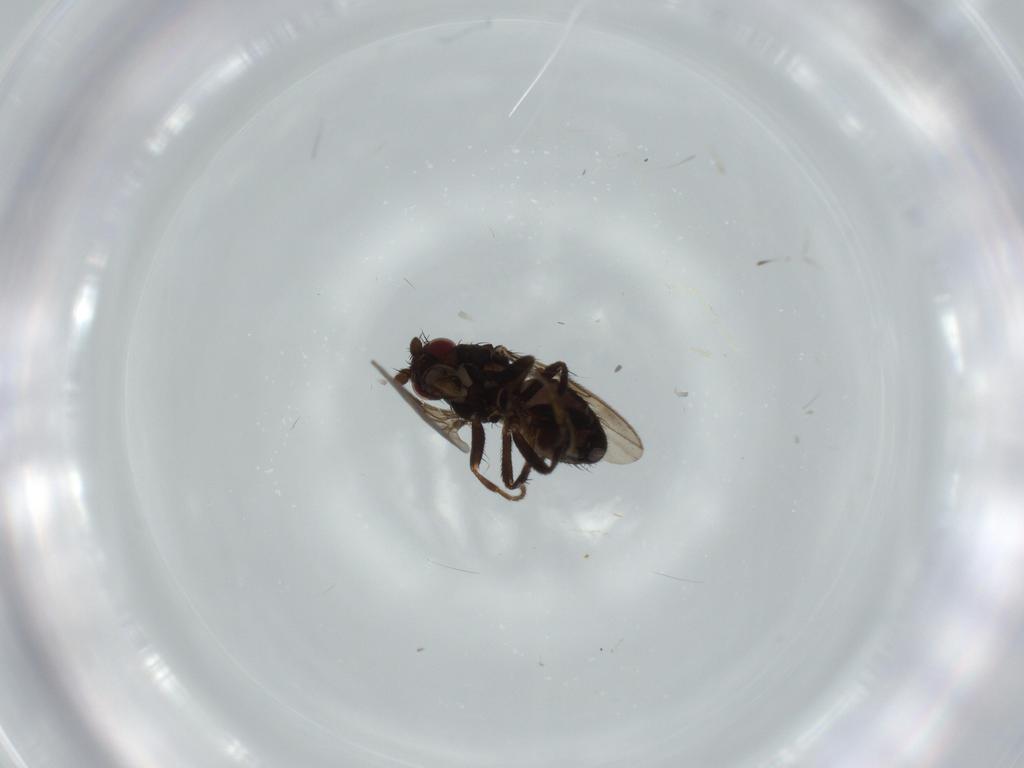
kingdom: Animalia
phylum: Arthropoda
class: Insecta
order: Diptera
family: Sphaeroceridae
